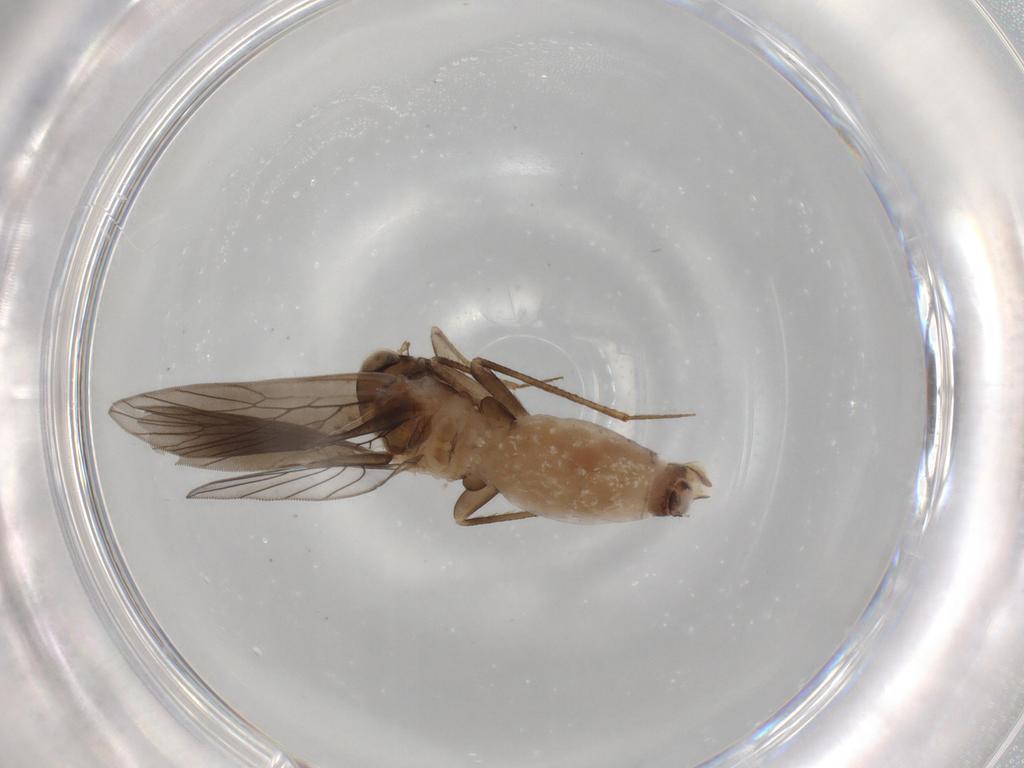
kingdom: Animalia
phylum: Arthropoda
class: Insecta
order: Psocodea
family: Lepidopsocidae
